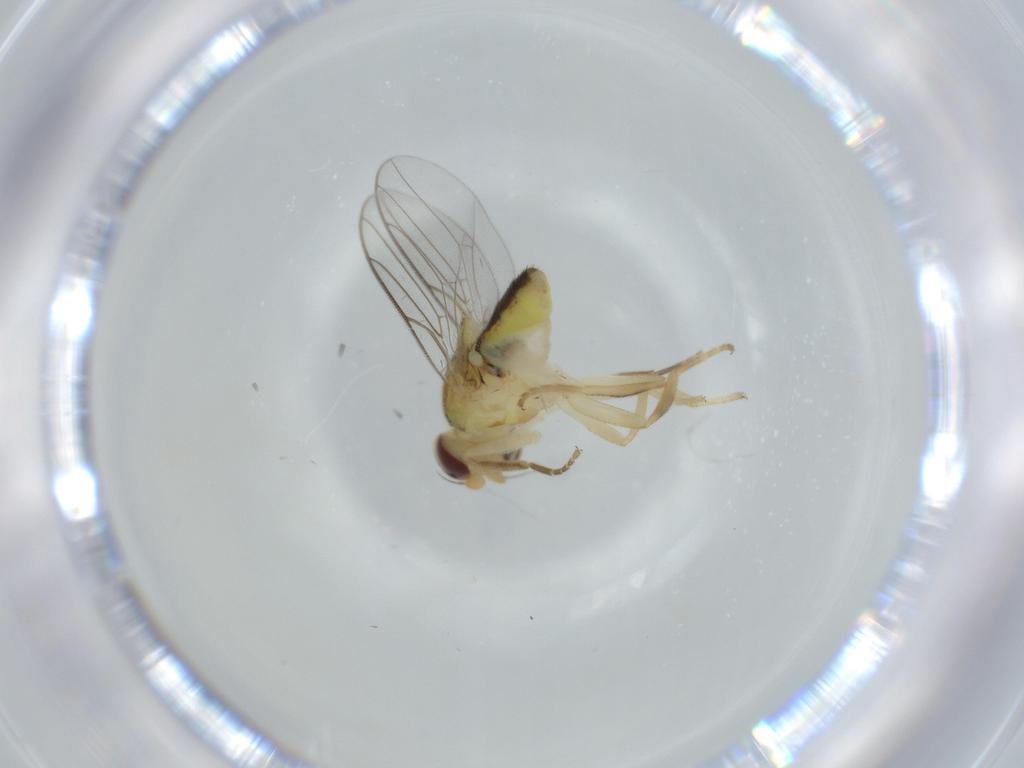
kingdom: Animalia
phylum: Arthropoda
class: Insecta
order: Diptera
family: Chloropidae
